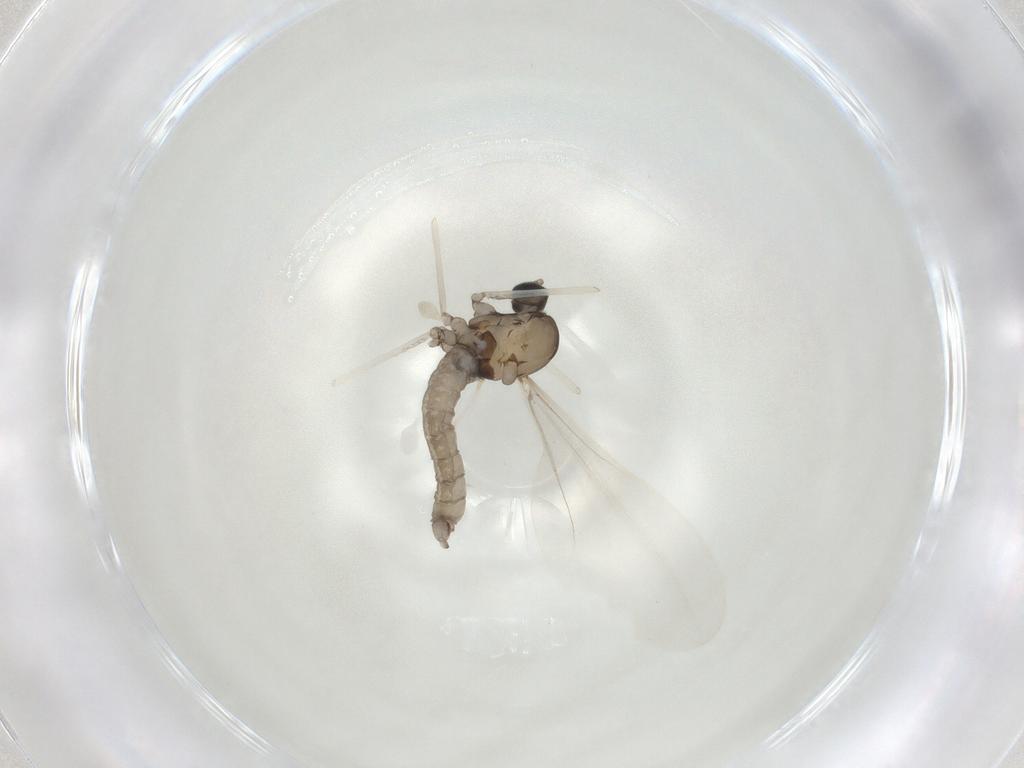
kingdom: Animalia
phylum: Arthropoda
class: Insecta
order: Diptera
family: Cecidomyiidae
